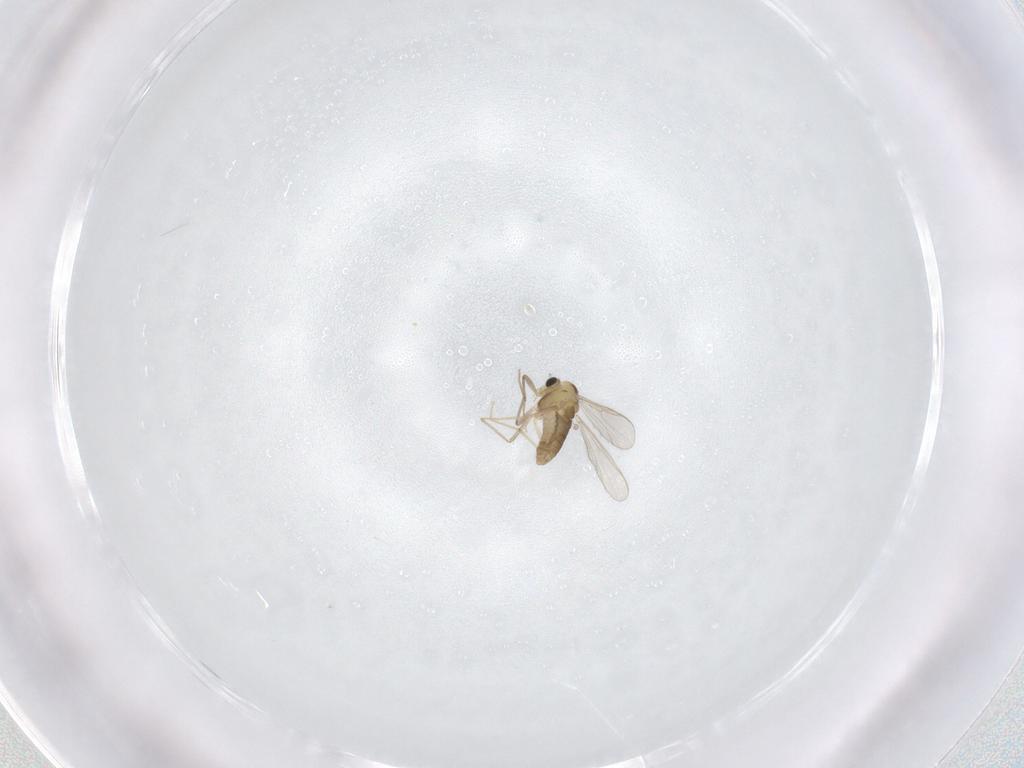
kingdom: Animalia
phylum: Arthropoda
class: Insecta
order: Diptera
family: Chironomidae
